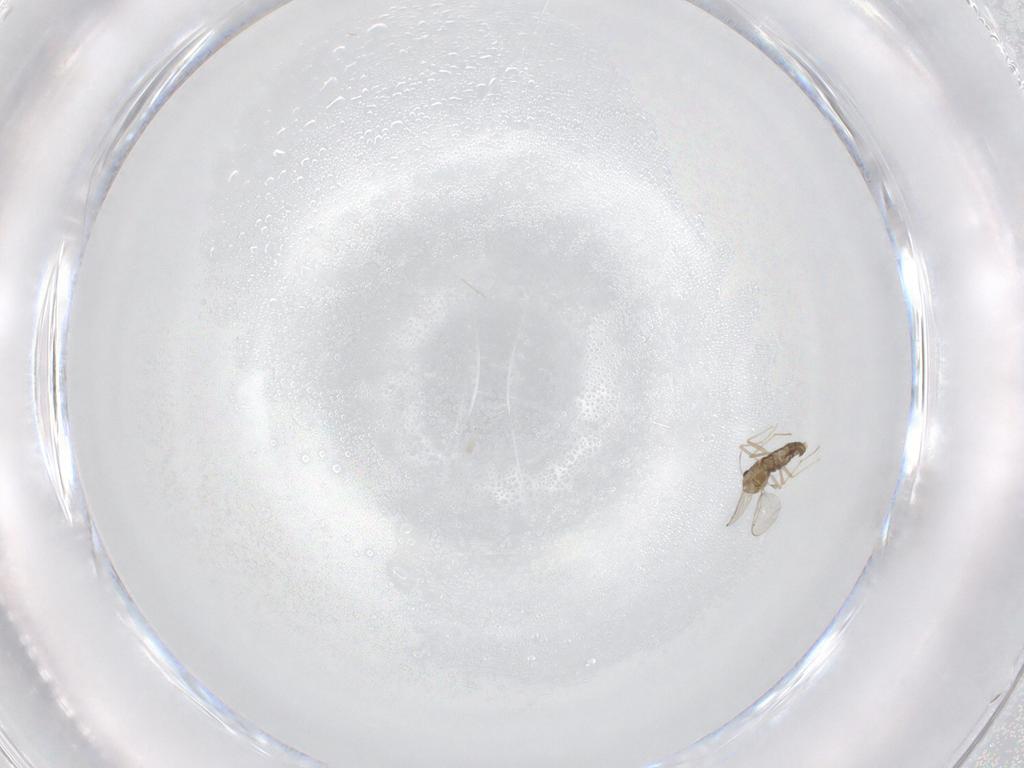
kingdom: Animalia
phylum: Arthropoda
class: Insecta
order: Diptera
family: Chironomidae
